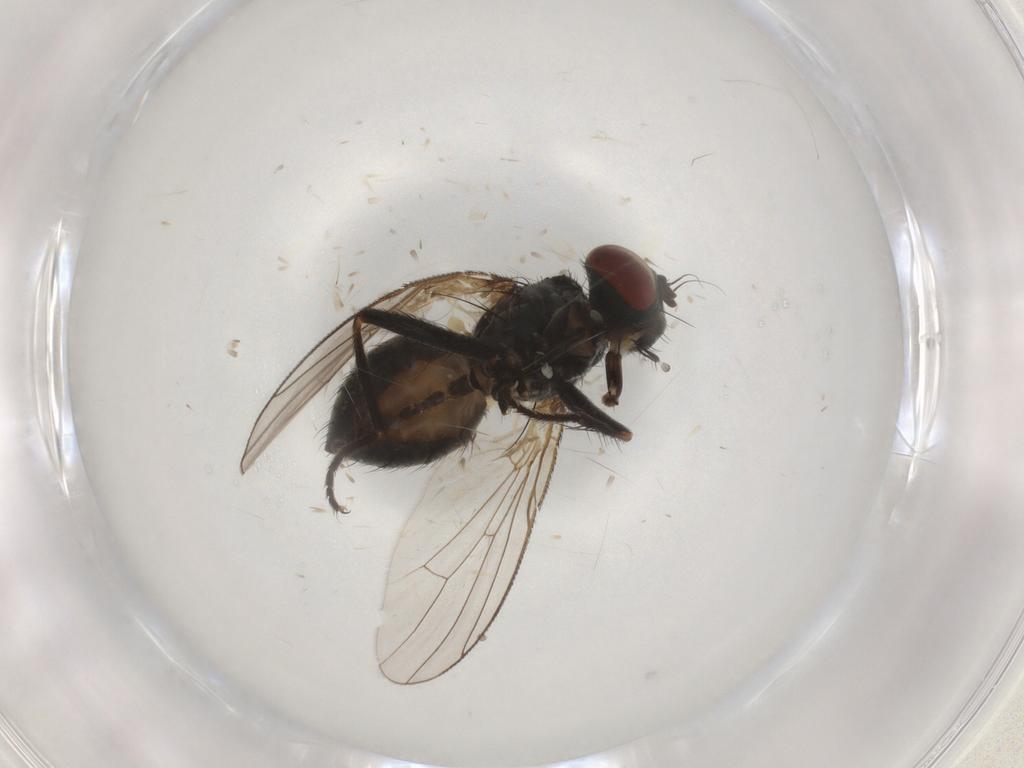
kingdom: Animalia
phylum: Arthropoda
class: Insecta
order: Diptera
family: Muscidae
